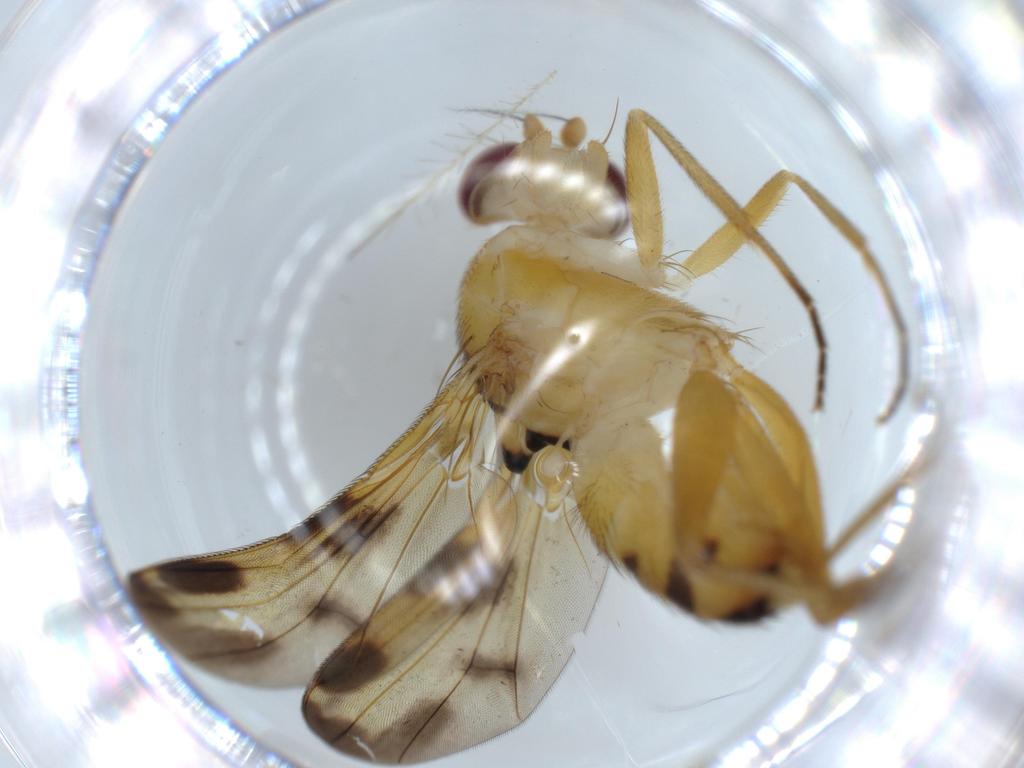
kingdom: Animalia
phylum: Arthropoda
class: Insecta
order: Diptera
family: Clusiidae
